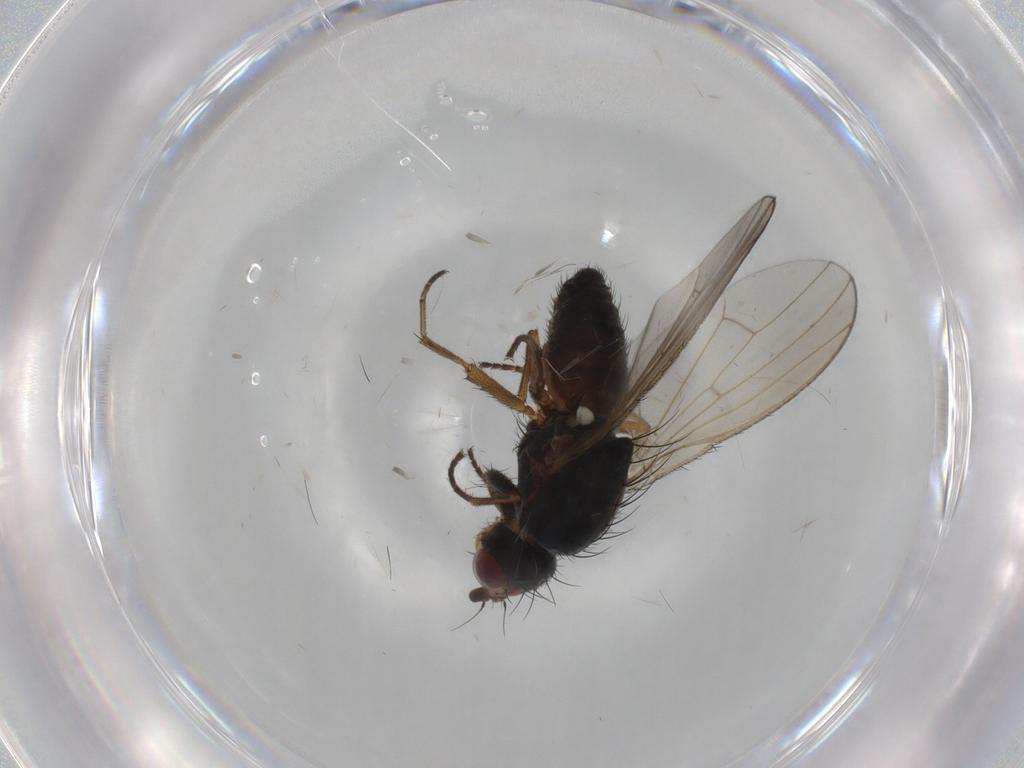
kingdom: Animalia
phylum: Arthropoda
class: Insecta
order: Diptera
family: Heleomyzidae
